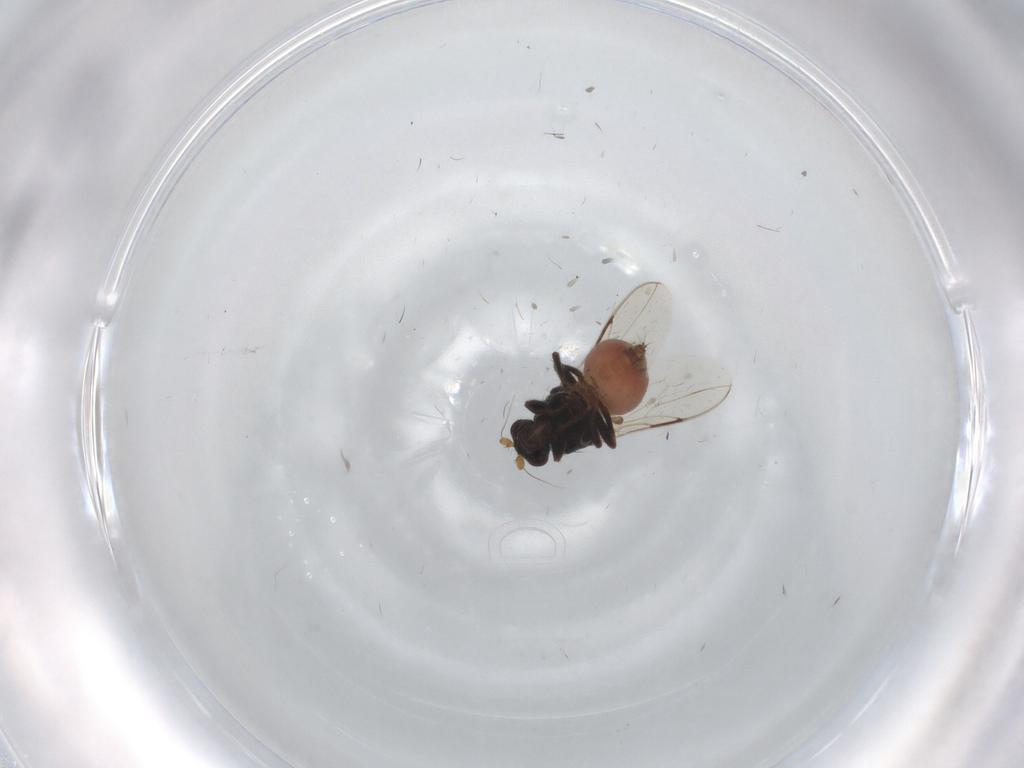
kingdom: Animalia
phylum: Arthropoda
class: Insecta
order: Diptera
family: Sphaeroceridae
